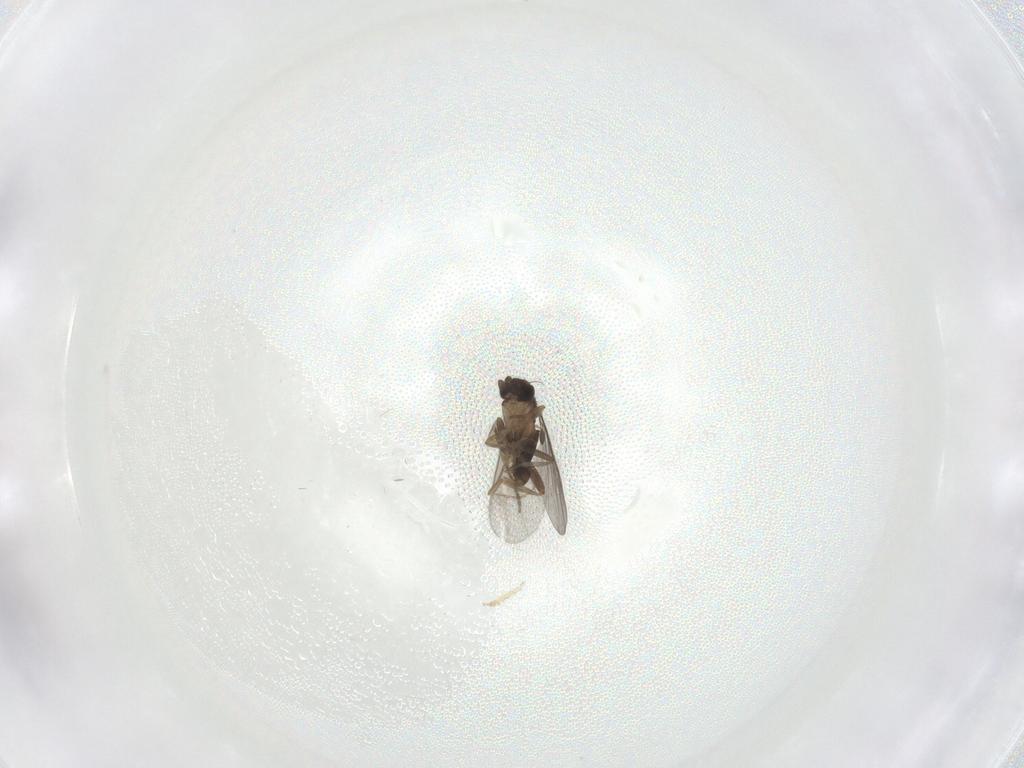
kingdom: Animalia
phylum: Arthropoda
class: Insecta
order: Diptera
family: Cecidomyiidae
